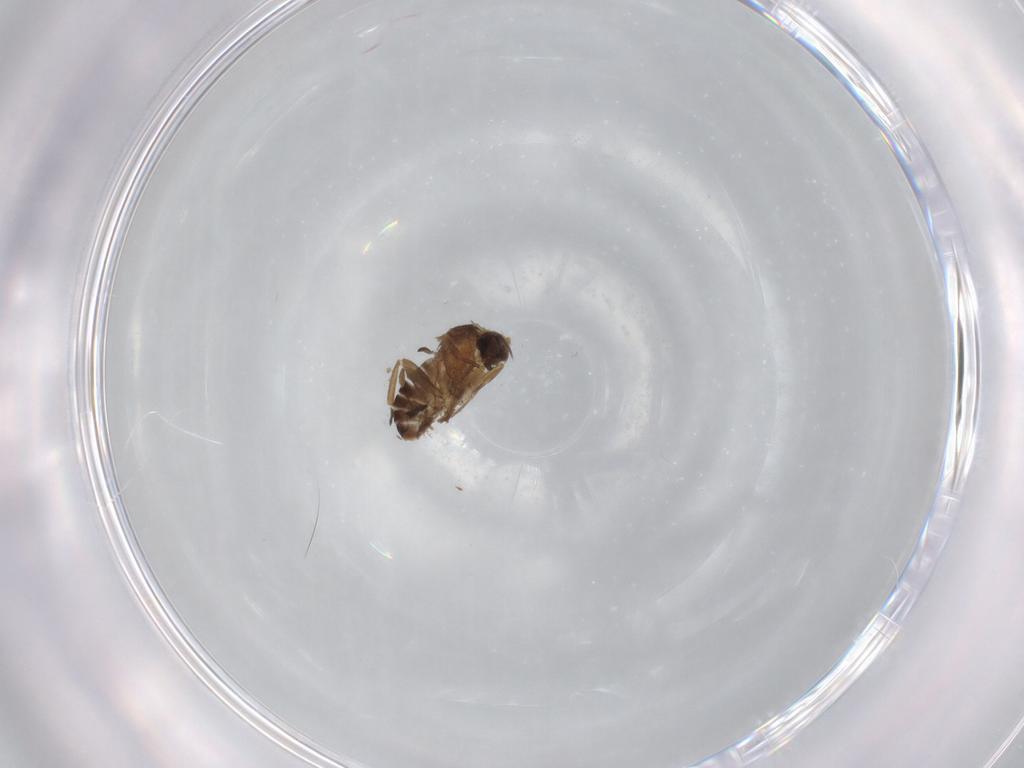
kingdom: Animalia
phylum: Arthropoda
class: Insecta
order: Diptera
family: Phoridae
